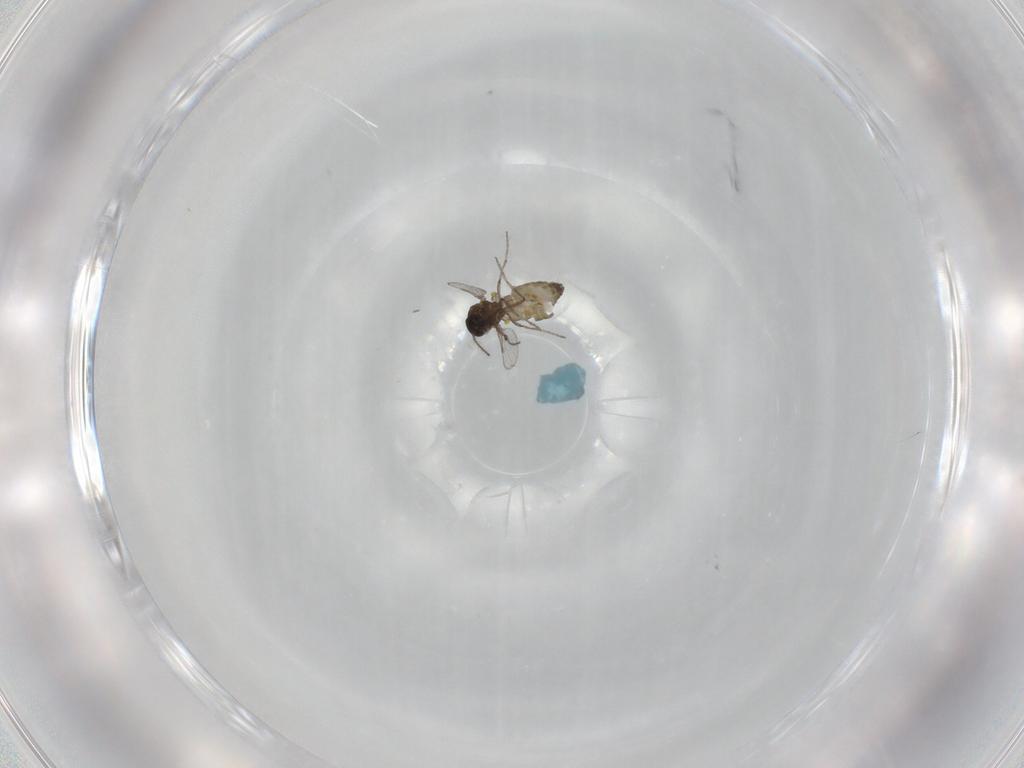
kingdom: Animalia
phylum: Arthropoda
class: Insecta
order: Diptera
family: Ceratopogonidae
